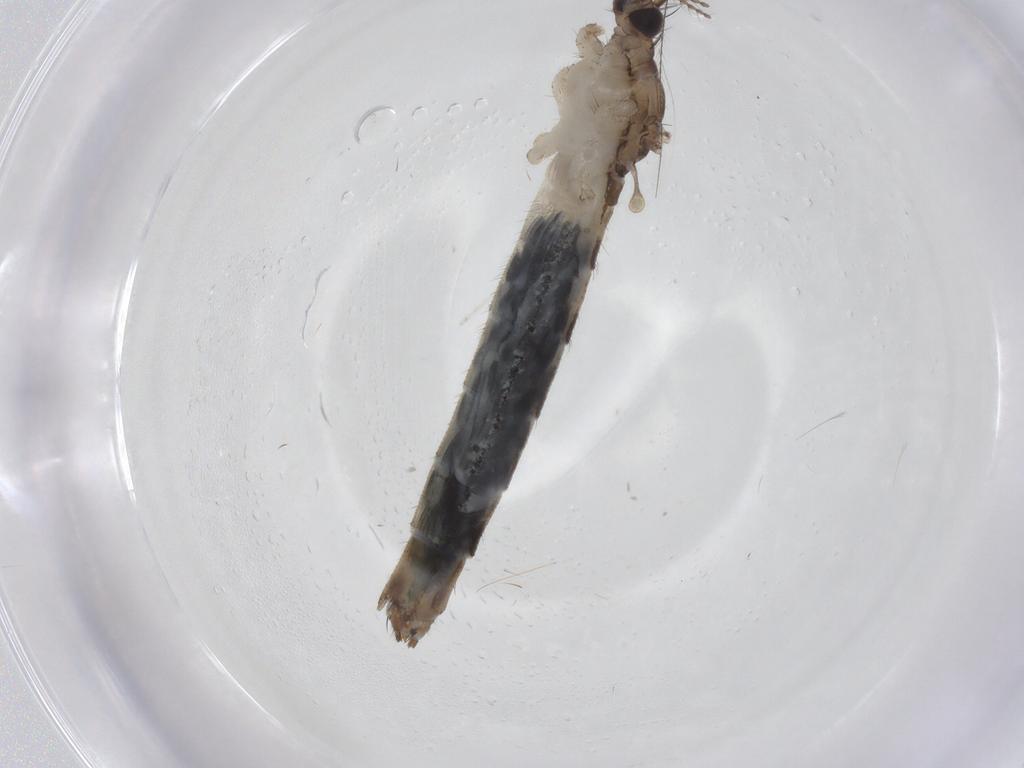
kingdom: Animalia
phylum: Arthropoda
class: Insecta
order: Diptera
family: Limoniidae
